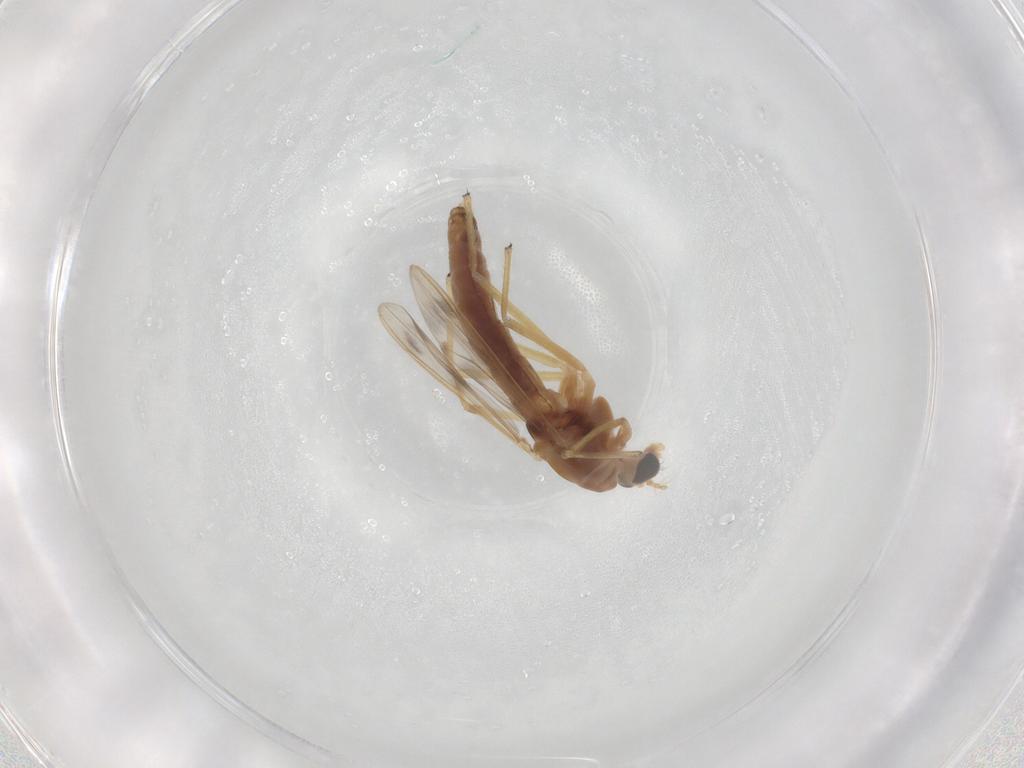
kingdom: Animalia
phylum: Arthropoda
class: Insecta
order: Diptera
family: Chironomidae
